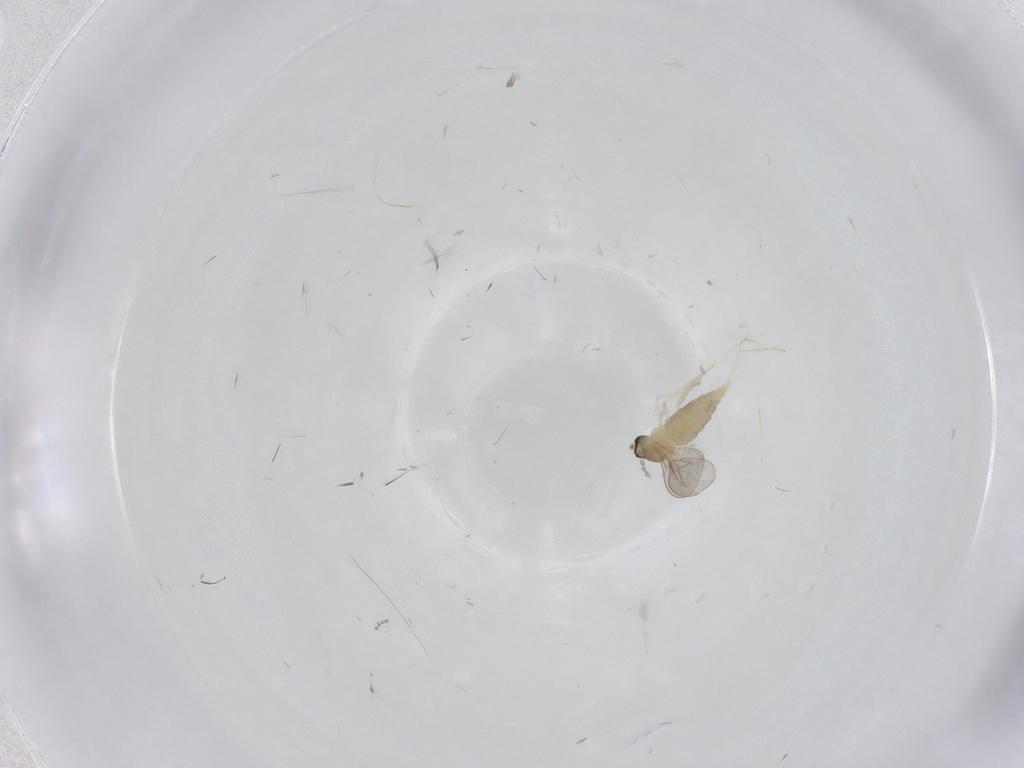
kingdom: Animalia
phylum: Arthropoda
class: Insecta
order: Diptera
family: Cecidomyiidae
